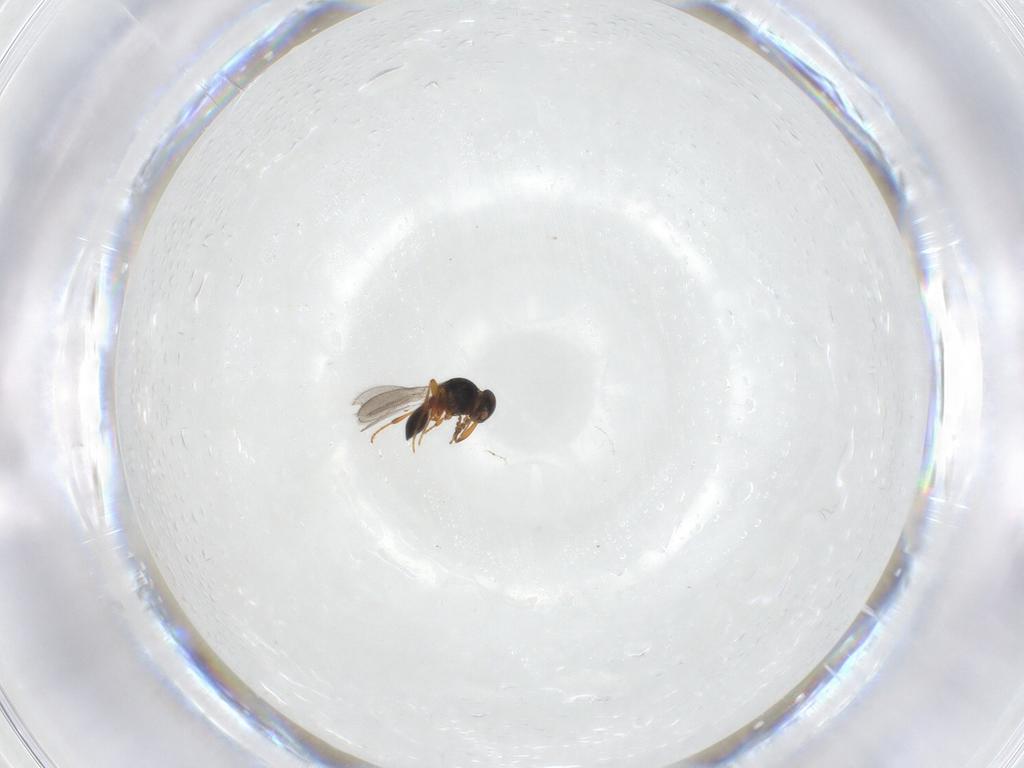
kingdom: Animalia
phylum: Arthropoda
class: Insecta
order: Hymenoptera
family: Platygastridae
